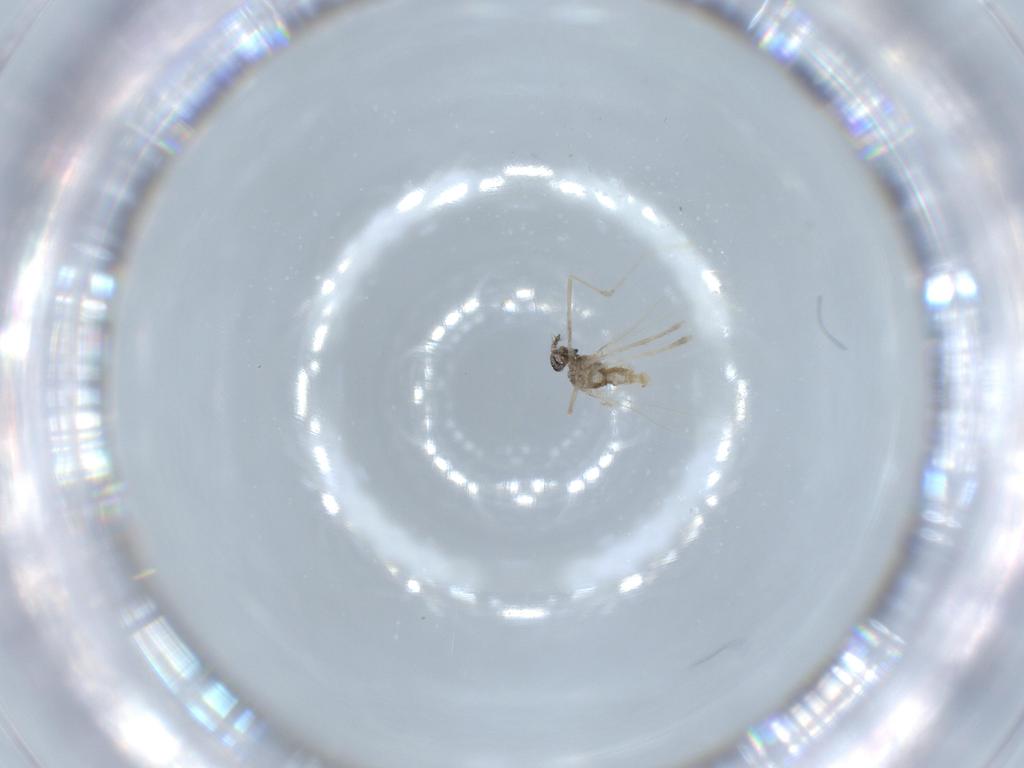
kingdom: Animalia
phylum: Arthropoda
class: Insecta
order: Diptera
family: Cecidomyiidae
